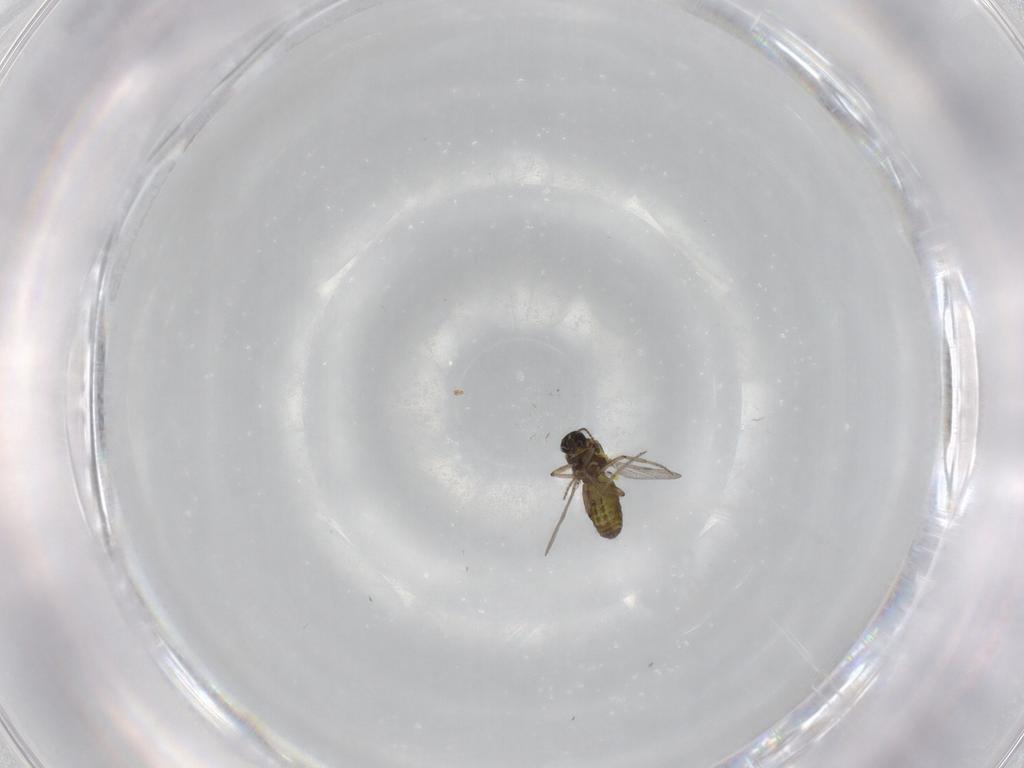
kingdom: Animalia
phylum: Arthropoda
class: Insecta
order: Diptera
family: Ceratopogonidae
